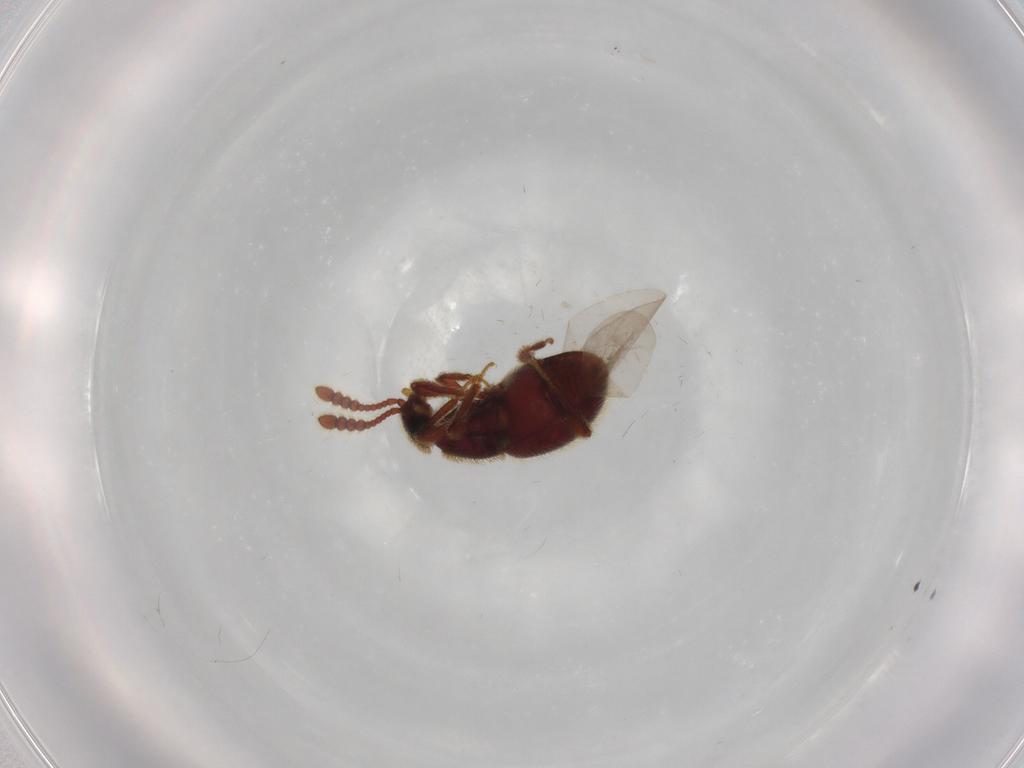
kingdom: Animalia
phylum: Arthropoda
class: Insecta
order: Coleoptera
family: Staphylinidae
